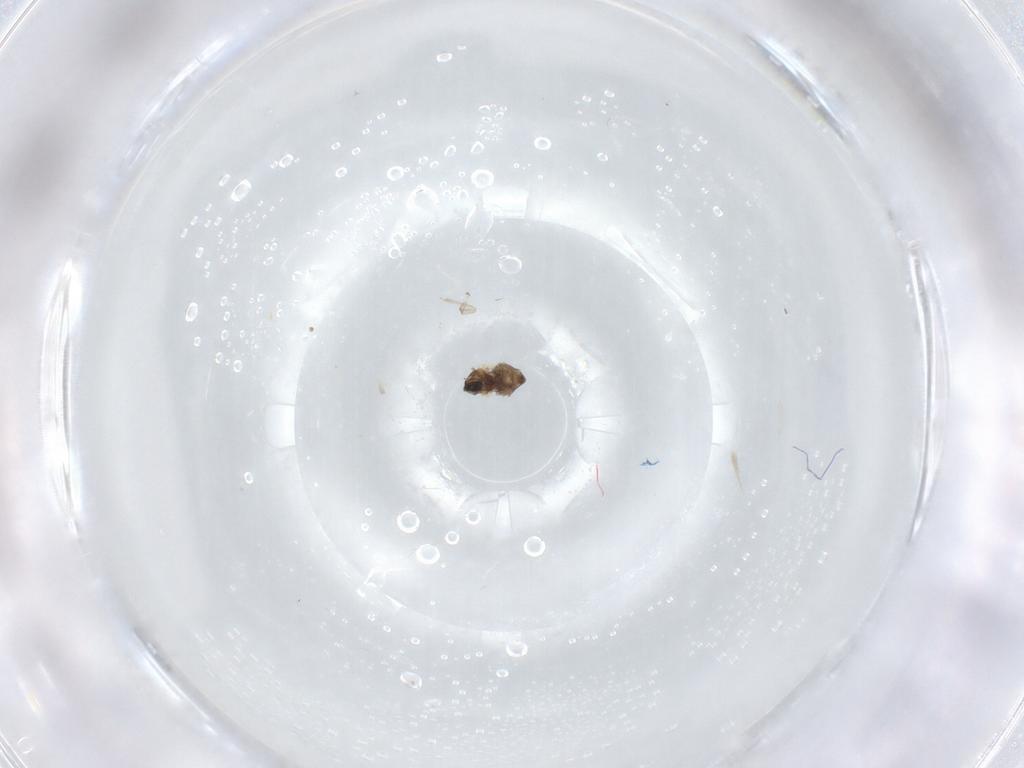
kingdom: Animalia
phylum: Arthropoda
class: Insecta
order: Diptera
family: Cecidomyiidae
